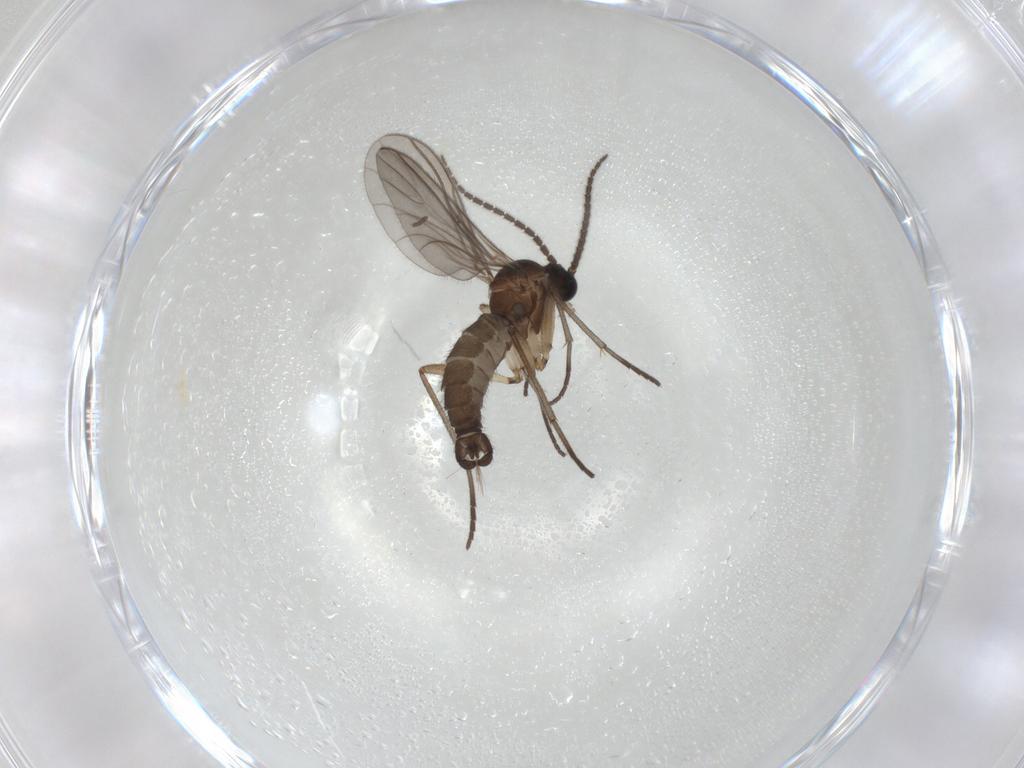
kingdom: Animalia
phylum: Arthropoda
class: Insecta
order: Diptera
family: Sciaridae
